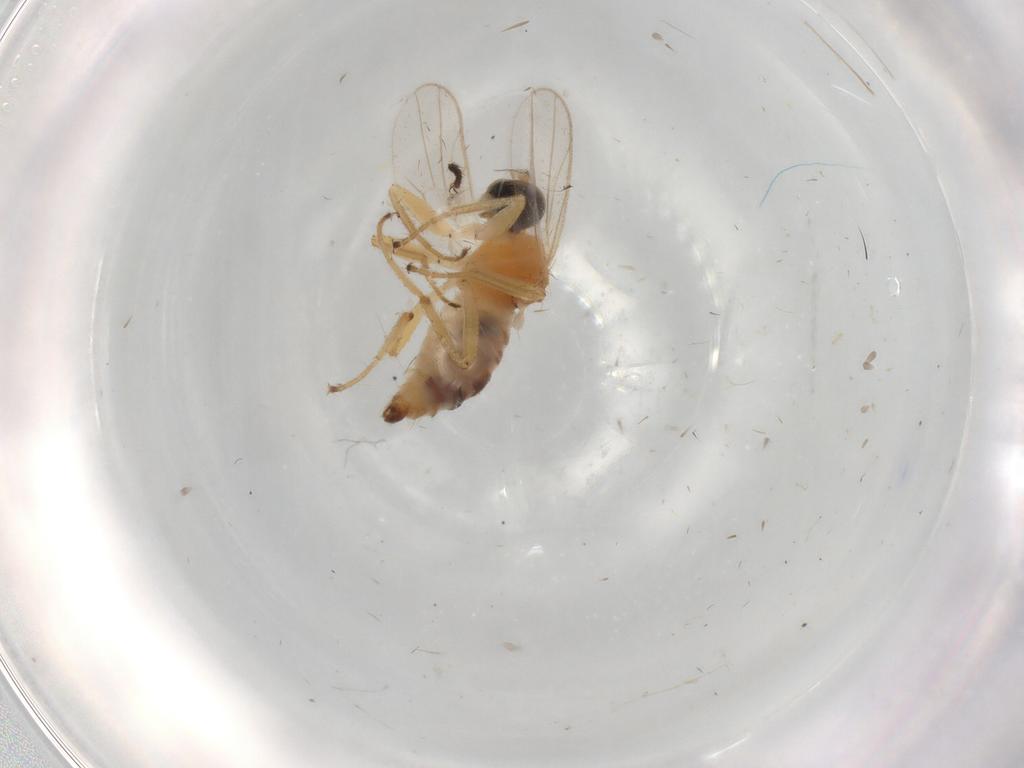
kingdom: Animalia
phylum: Arthropoda
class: Insecta
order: Diptera
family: Hybotidae
